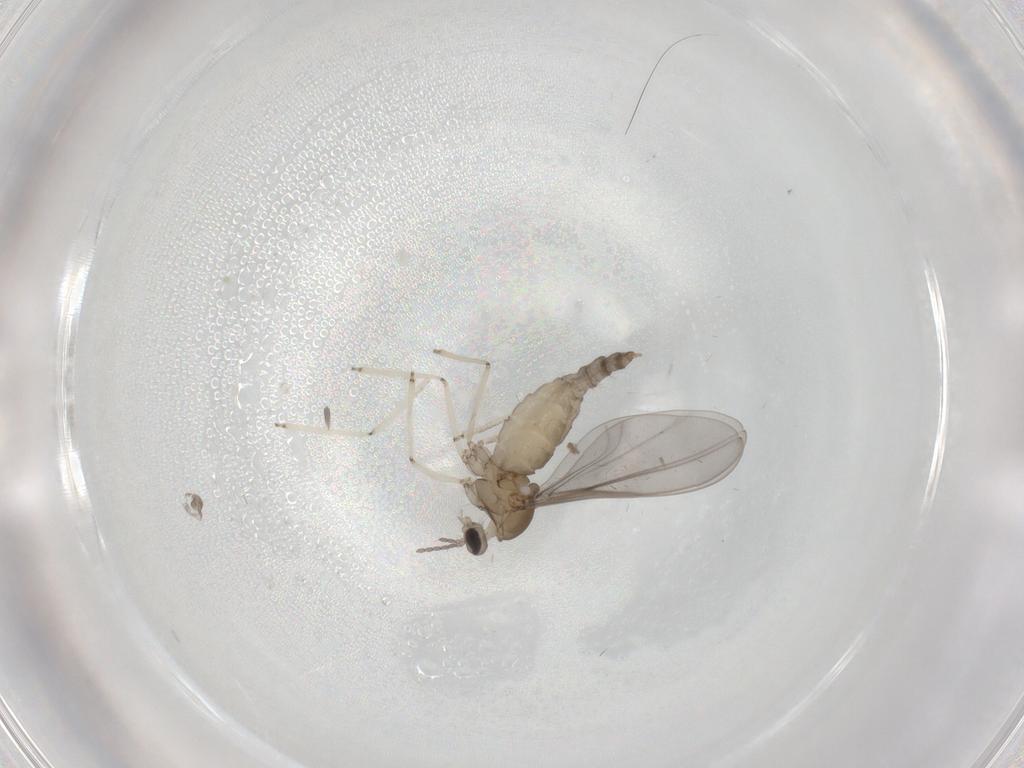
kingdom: Animalia
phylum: Arthropoda
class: Insecta
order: Diptera
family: Cecidomyiidae
